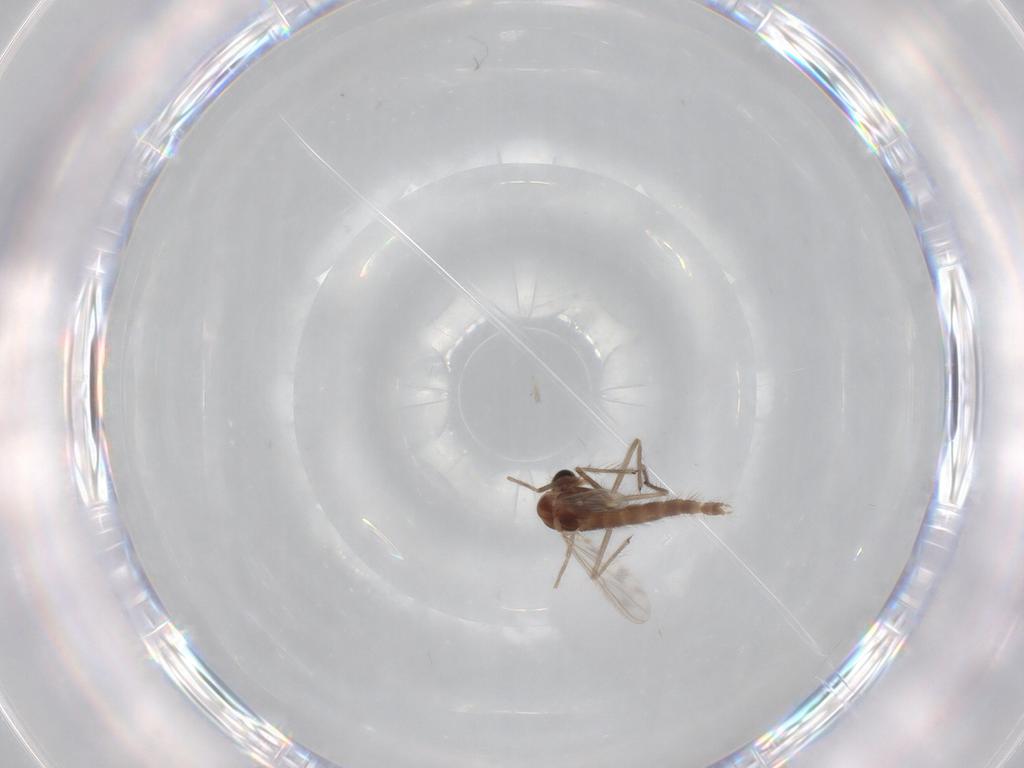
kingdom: Animalia
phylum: Arthropoda
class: Insecta
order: Diptera
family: Chironomidae
